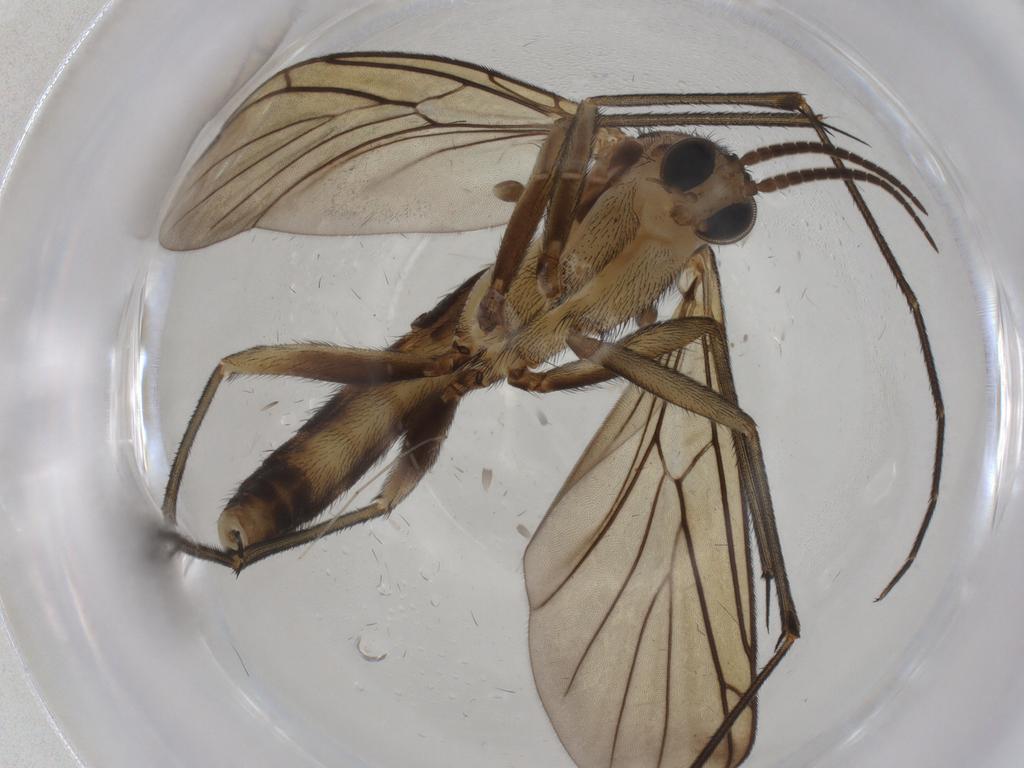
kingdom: Animalia
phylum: Arthropoda
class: Insecta
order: Diptera
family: Chironomidae
